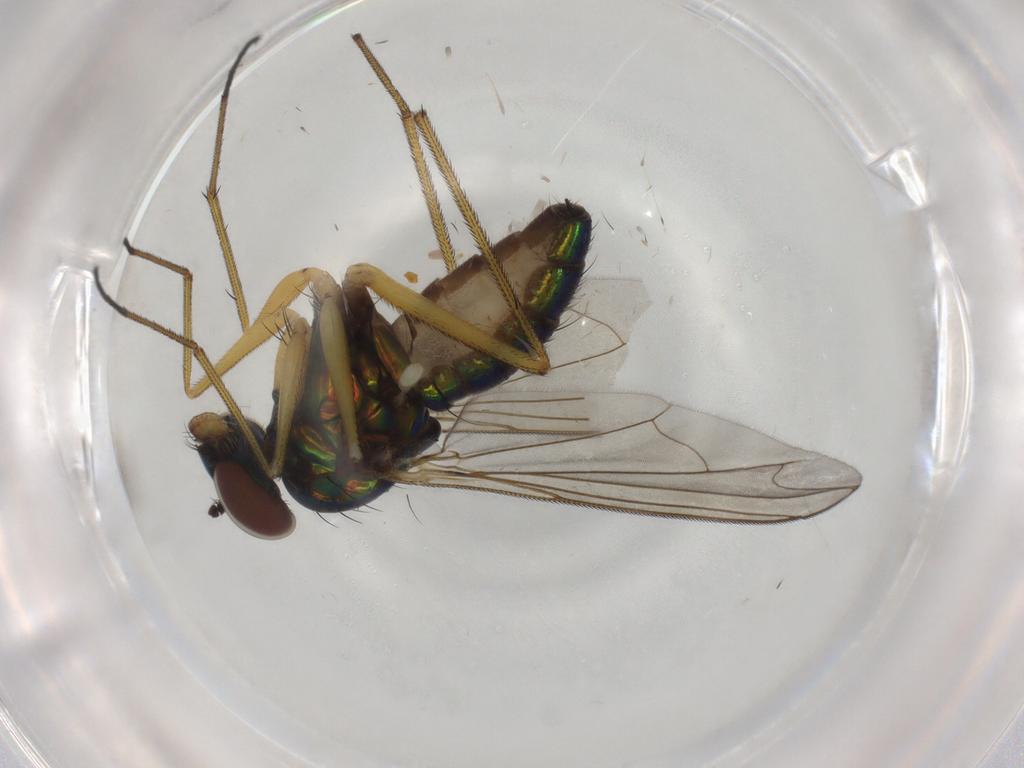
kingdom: Animalia
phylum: Arthropoda
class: Insecta
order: Diptera
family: Dolichopodidae
